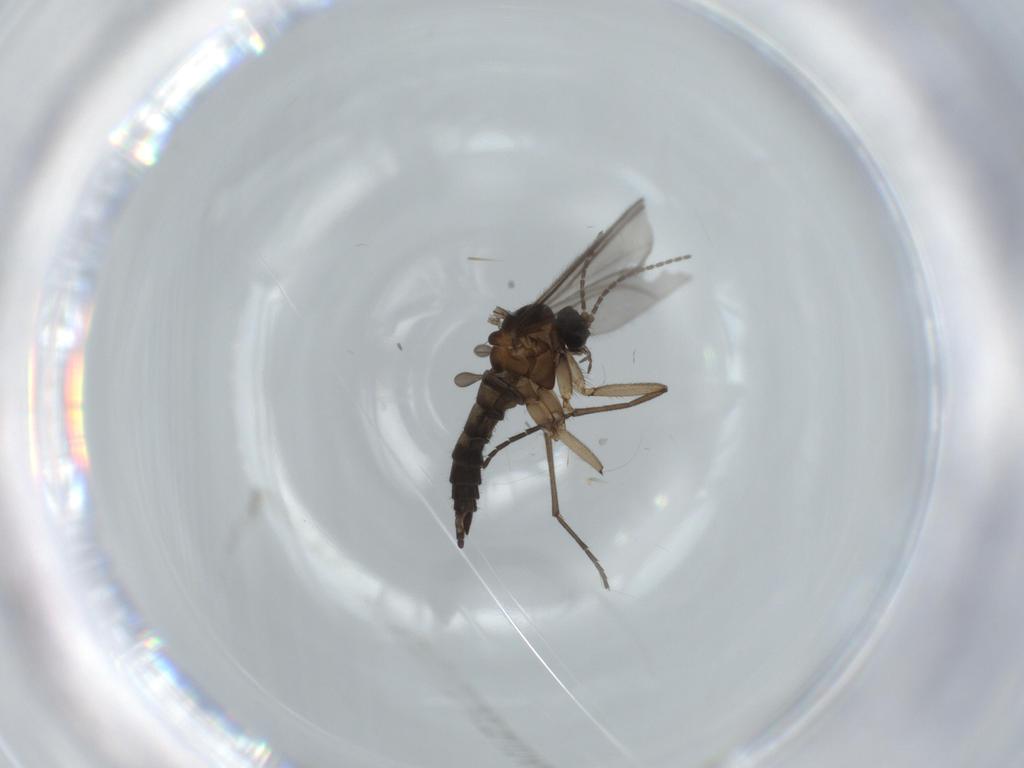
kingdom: Animalia
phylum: Arthropoda
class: Insecta
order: Diptera
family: Sciaridae
